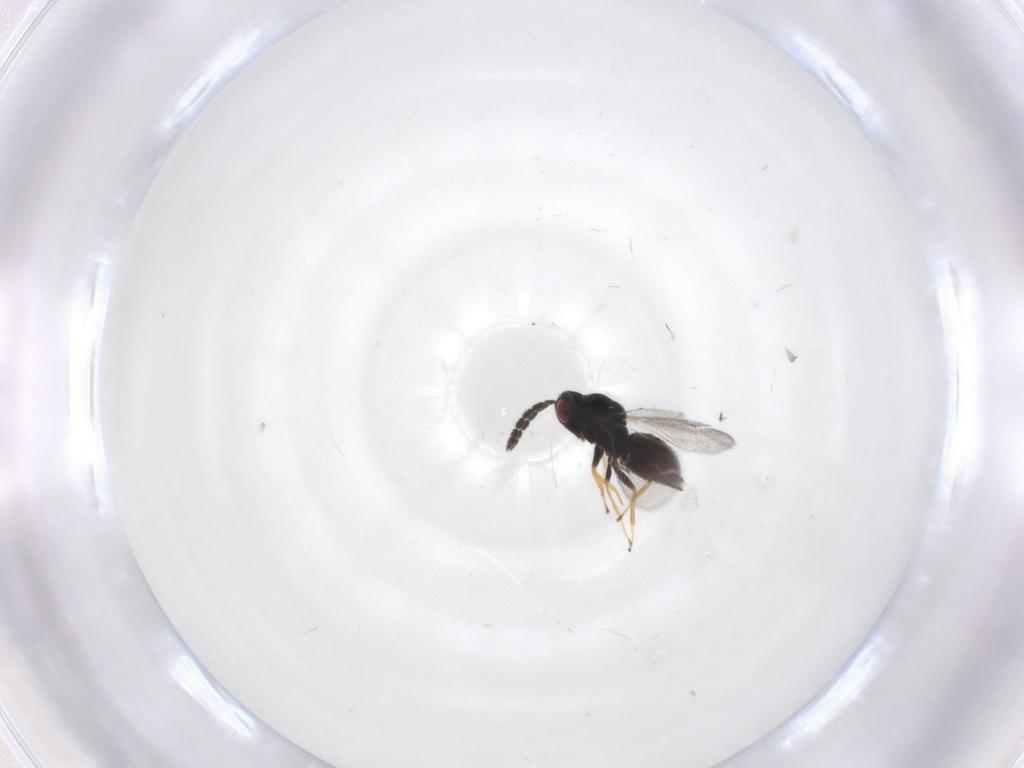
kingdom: Animalia
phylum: Arthropoda
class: Insecta
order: Hymenoptera
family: Eulophidae
